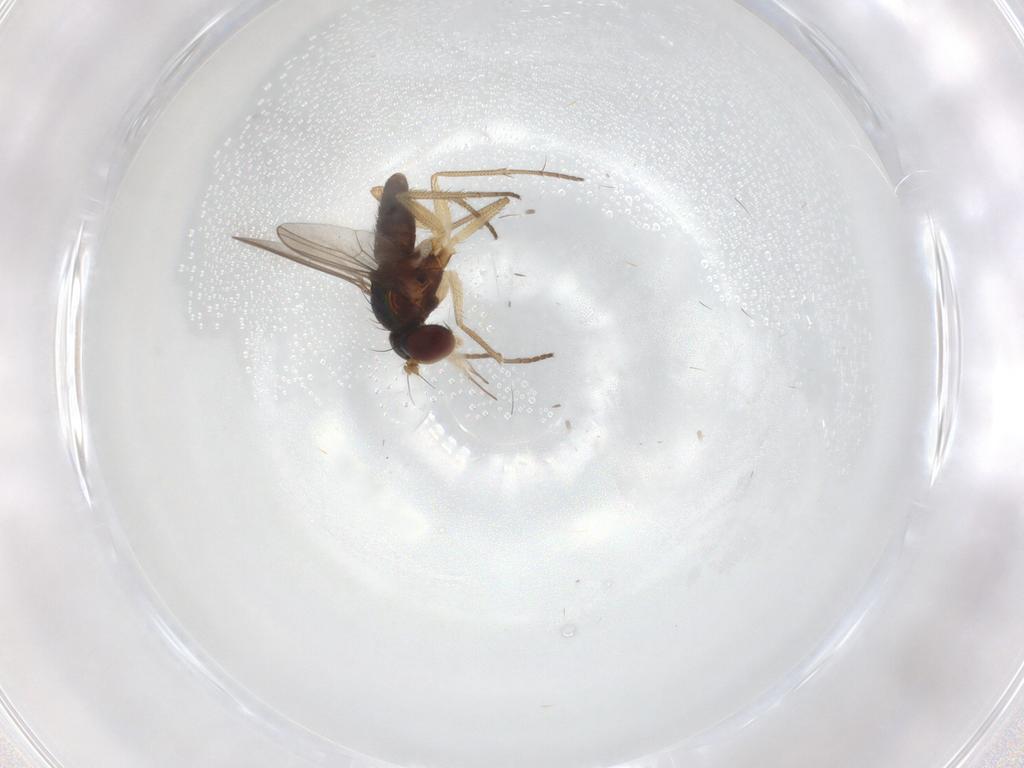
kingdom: Animalia
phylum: Arthropoda
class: Insecta
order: Diptera
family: Dolichopodidae
